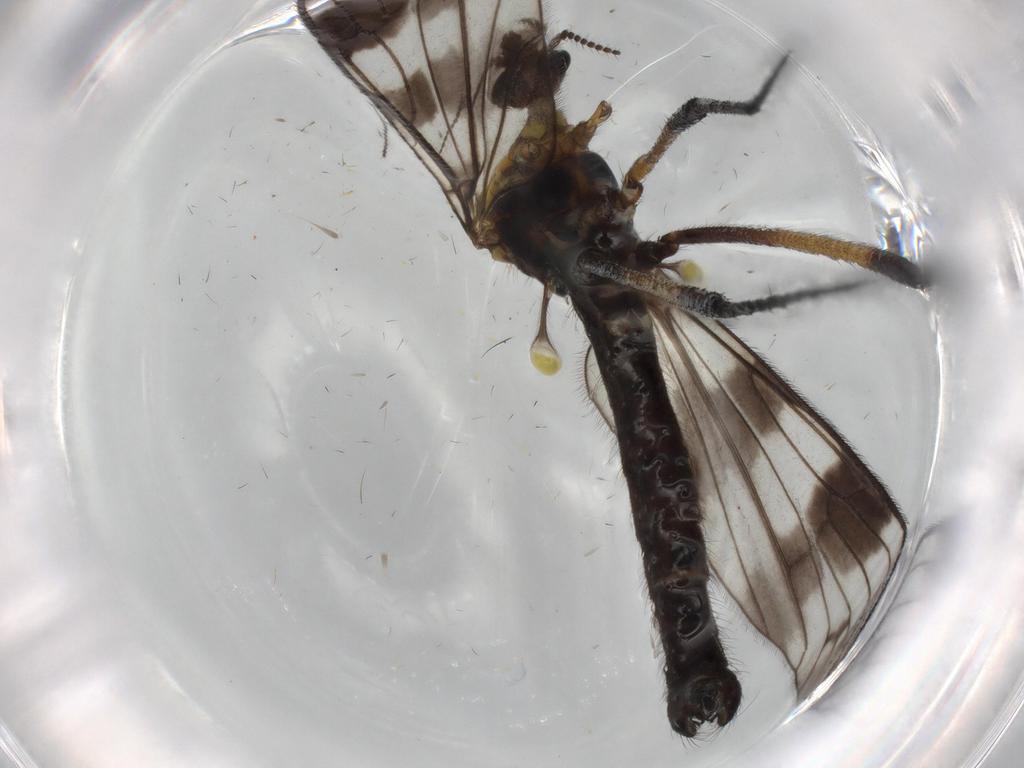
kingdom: Animalia
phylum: Arthropoda
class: Insecta
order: Diptera
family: Limoniidae
